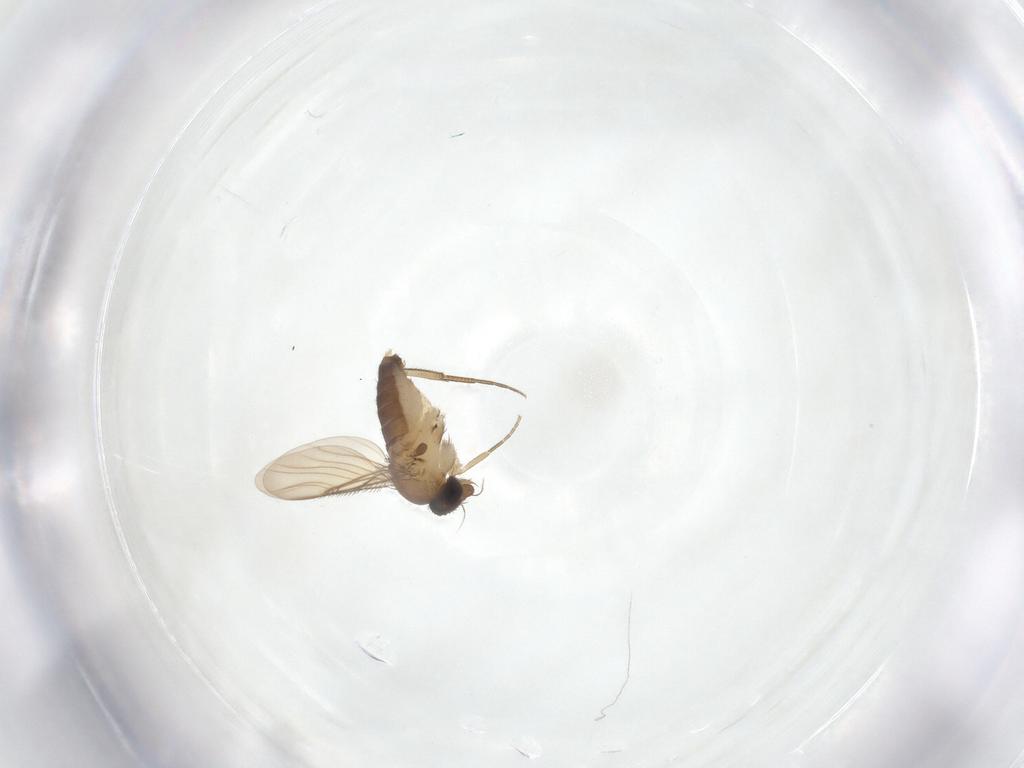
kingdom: Animalia
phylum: Arthropoda
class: Insecta
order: Diptera
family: Phoridae
